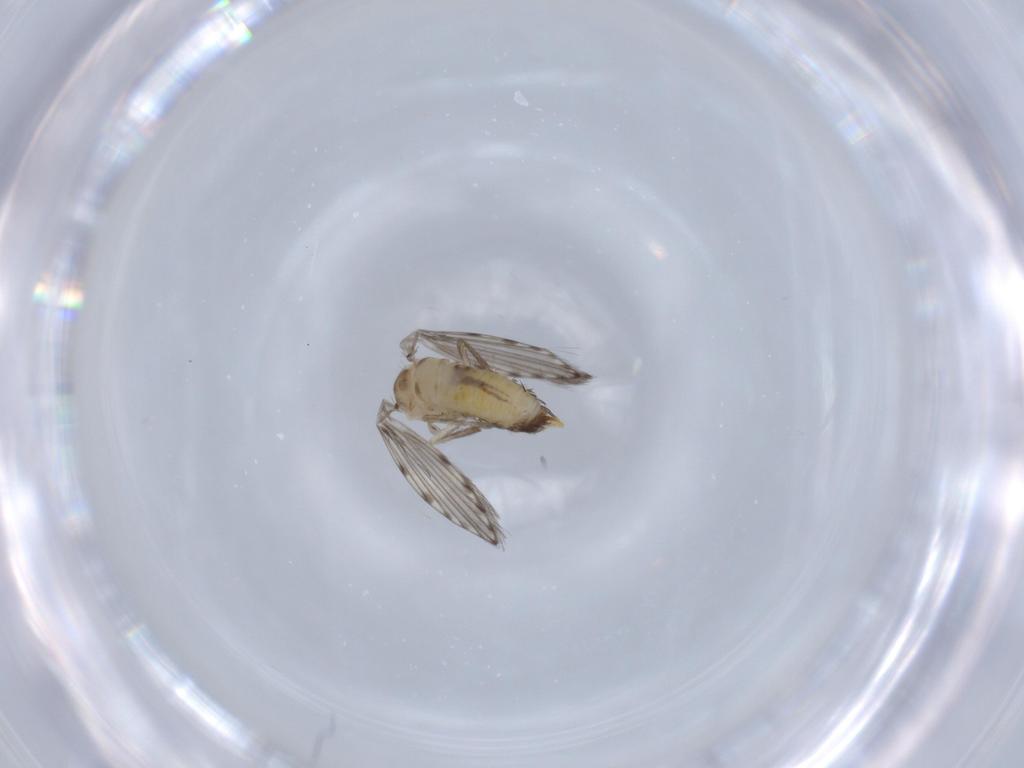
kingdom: Animalia
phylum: Arthropoda
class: Insecta
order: Diptera
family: Psychodidae
